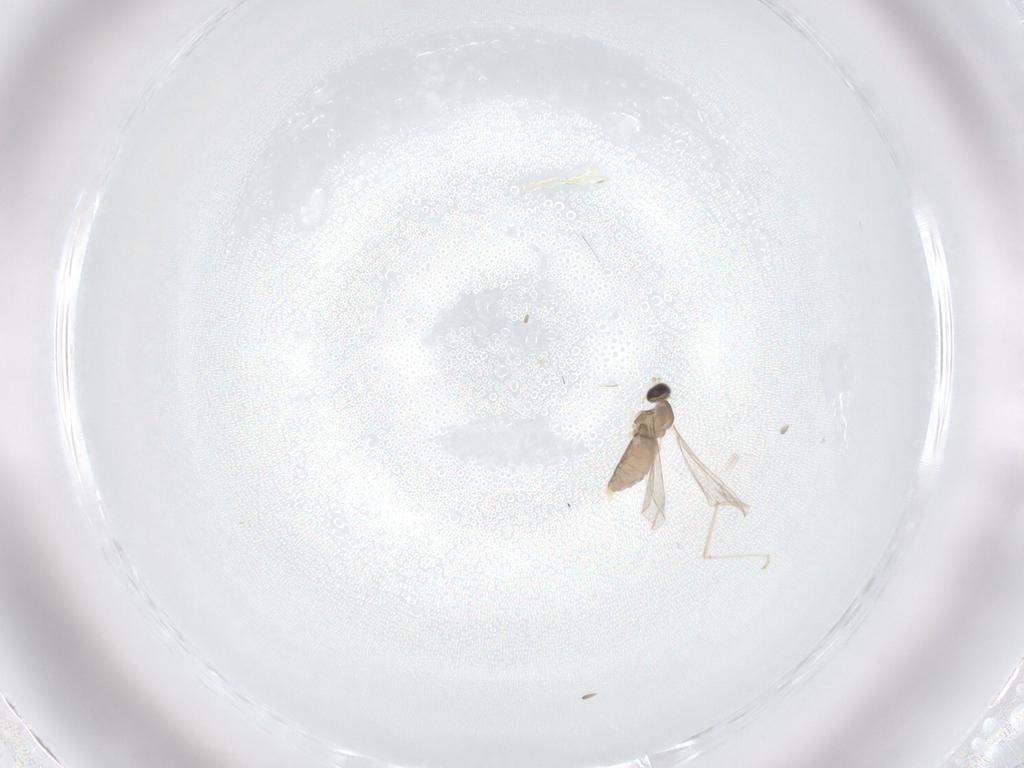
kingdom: Animalia
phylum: Arthropoda
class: Insecta
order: Diptera
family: Cecidomyiidae
